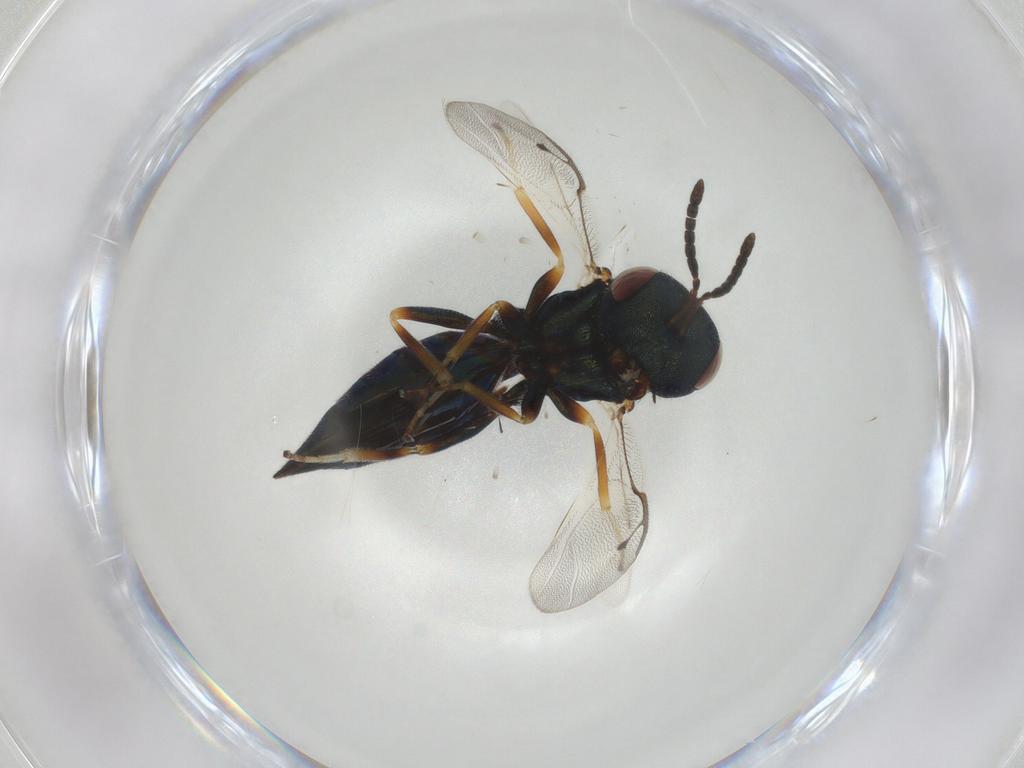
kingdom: Animalia
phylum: Arthropoda
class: Insecta
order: Hymenoptera
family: Pteromalidae
